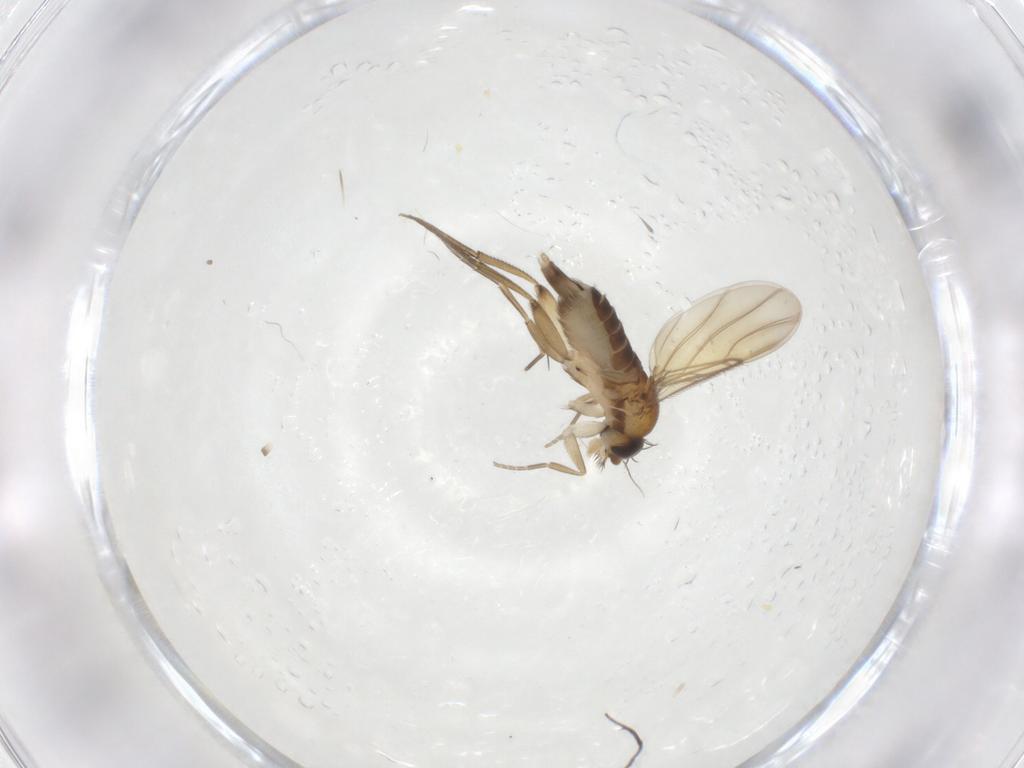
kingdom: Animalia
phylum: Arthropoda
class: Insecta
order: Diptera
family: Phoridae
